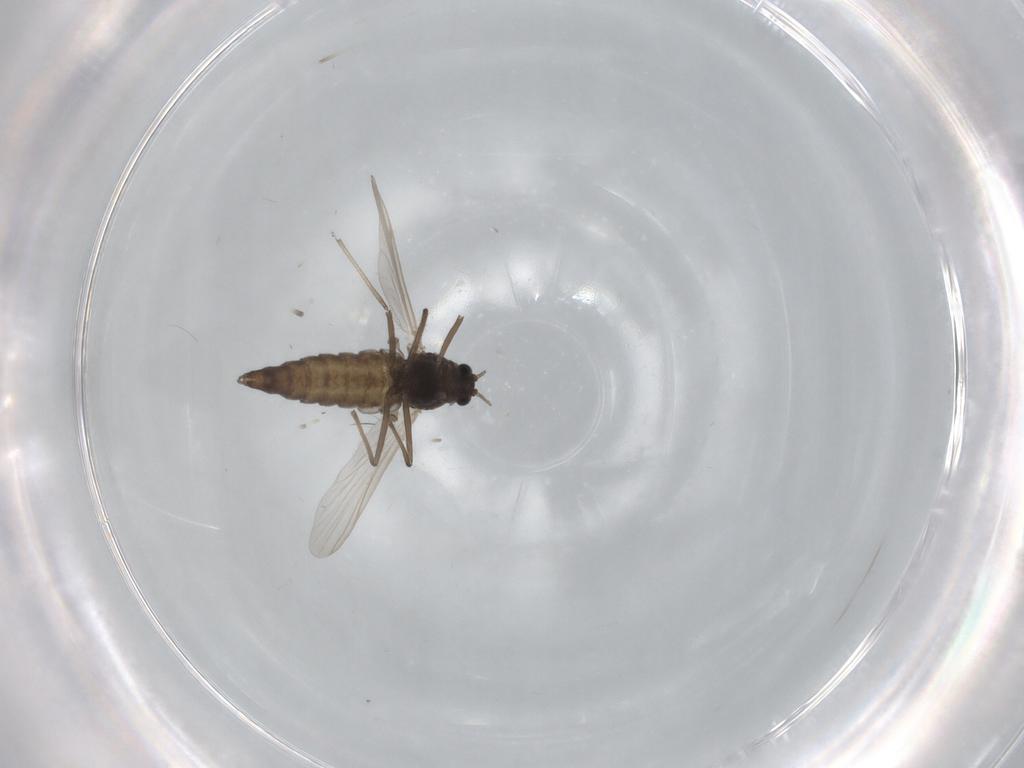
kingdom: Animalia
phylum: Arthropoda
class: Insecta
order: Diptera
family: Chironomidae
